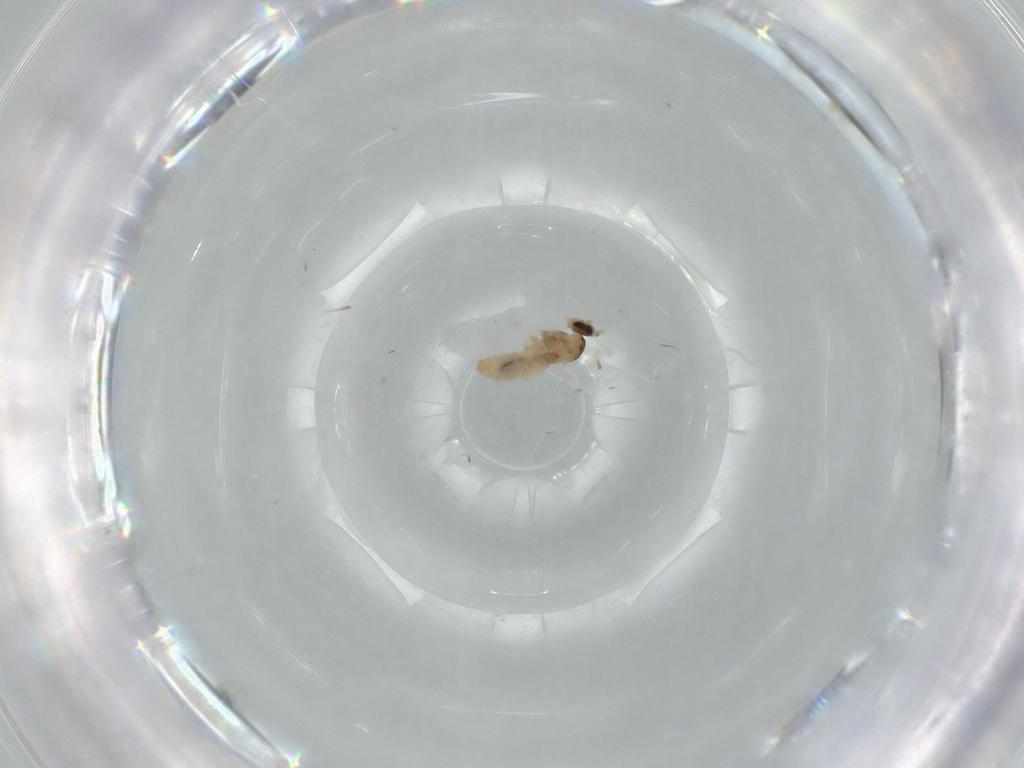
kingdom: Animalia
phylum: Arthropoda
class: Insecta
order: Diptera
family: Cecidomyiidae
